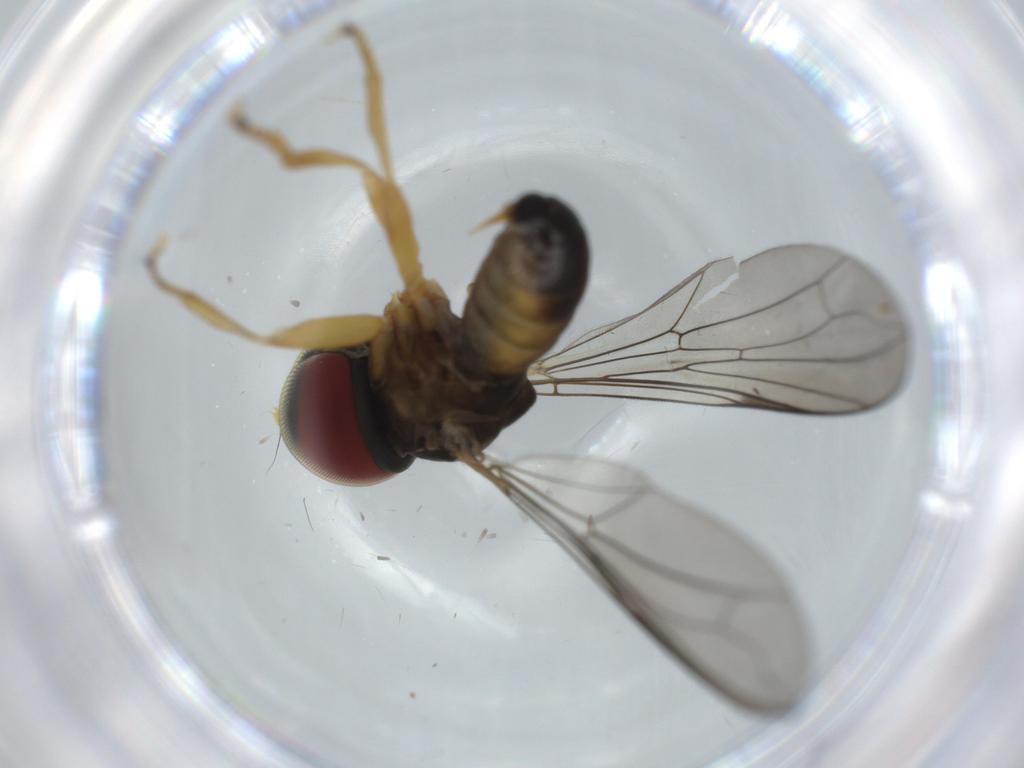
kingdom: Animalia
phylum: Arthropoda
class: Insecta
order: Diptera
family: Pipunculidae
